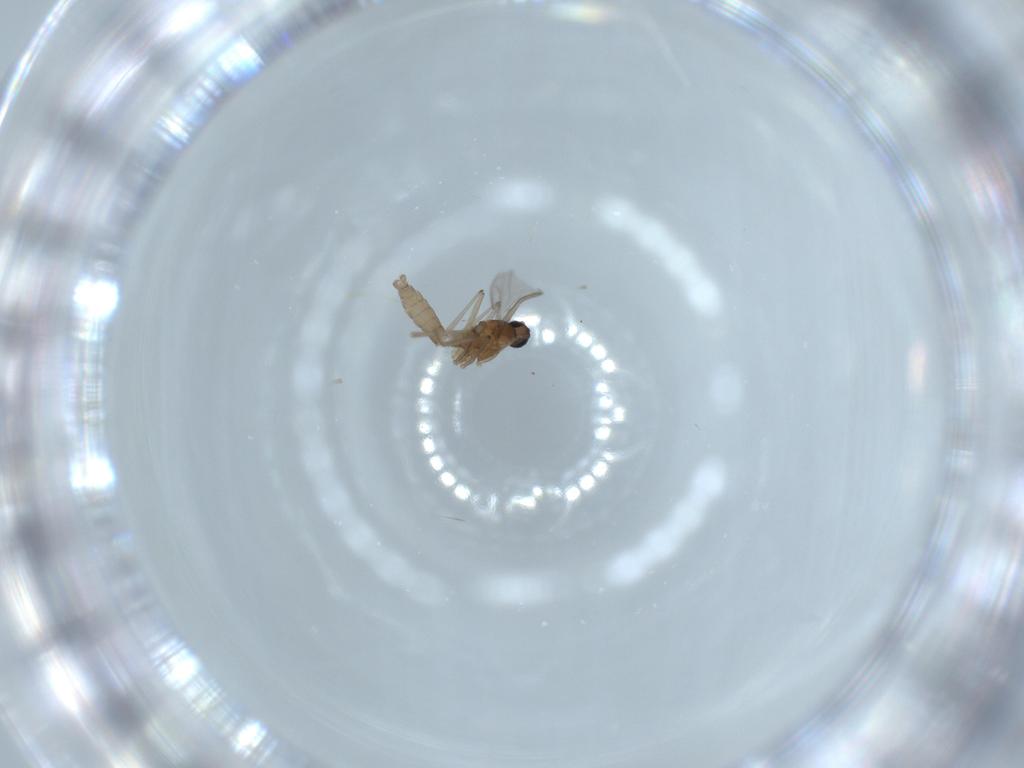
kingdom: Animalia
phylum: Arthropoda
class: Insecta
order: Diptera
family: Cecidomyiidae
